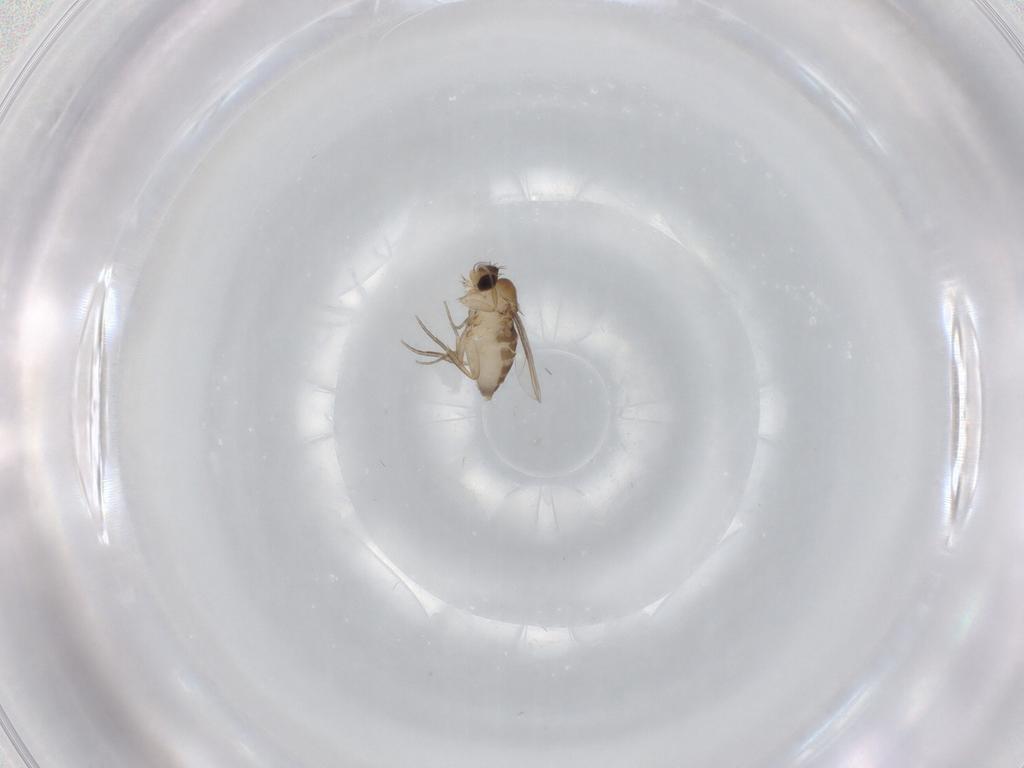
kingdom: Animalia
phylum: Arthropoda
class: Insecta
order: Diptera
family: Phoridae
